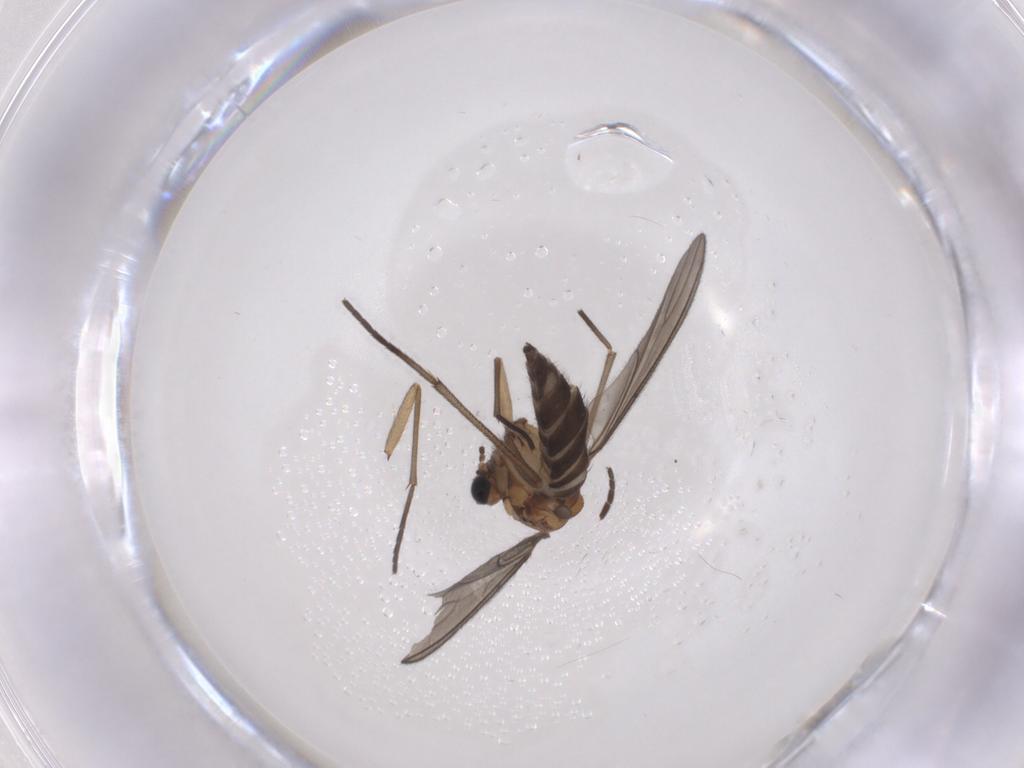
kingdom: Animalia
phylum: Arthropoda
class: Insecta
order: Diptera
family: Sciaridae
